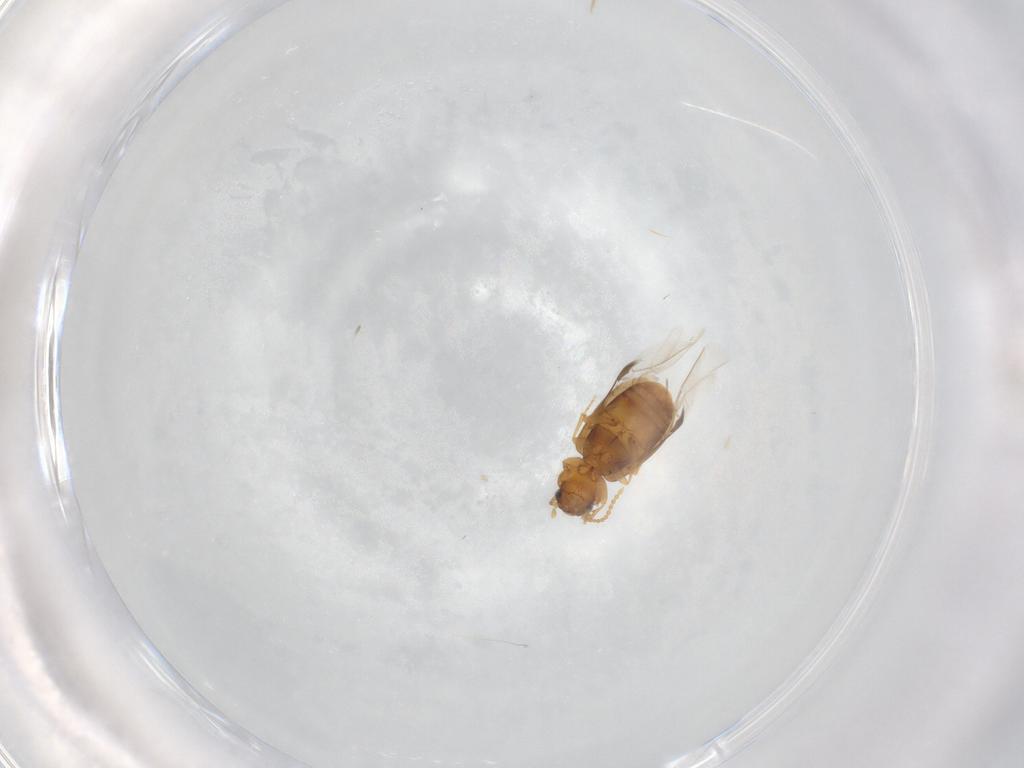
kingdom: Animalia
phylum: Arthropoda
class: Insecta
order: Coleoptera
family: Carabidae
